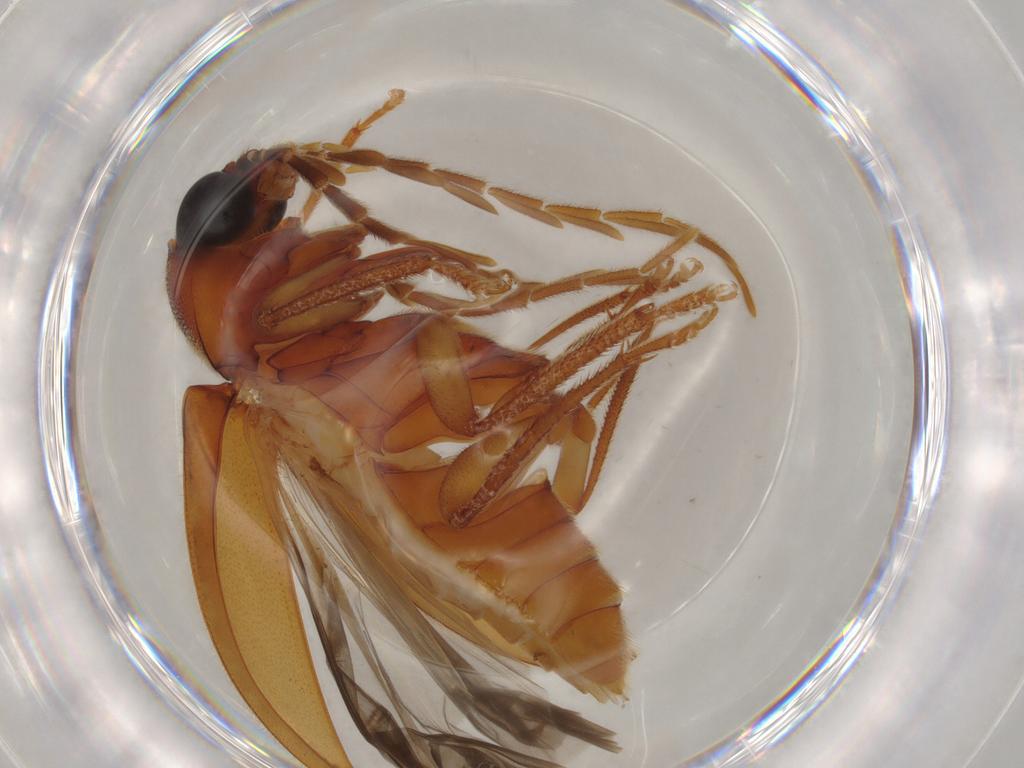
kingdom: Animalia
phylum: Arthropoda
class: Insecta
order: Coleoptera
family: Ptilodactylidae
